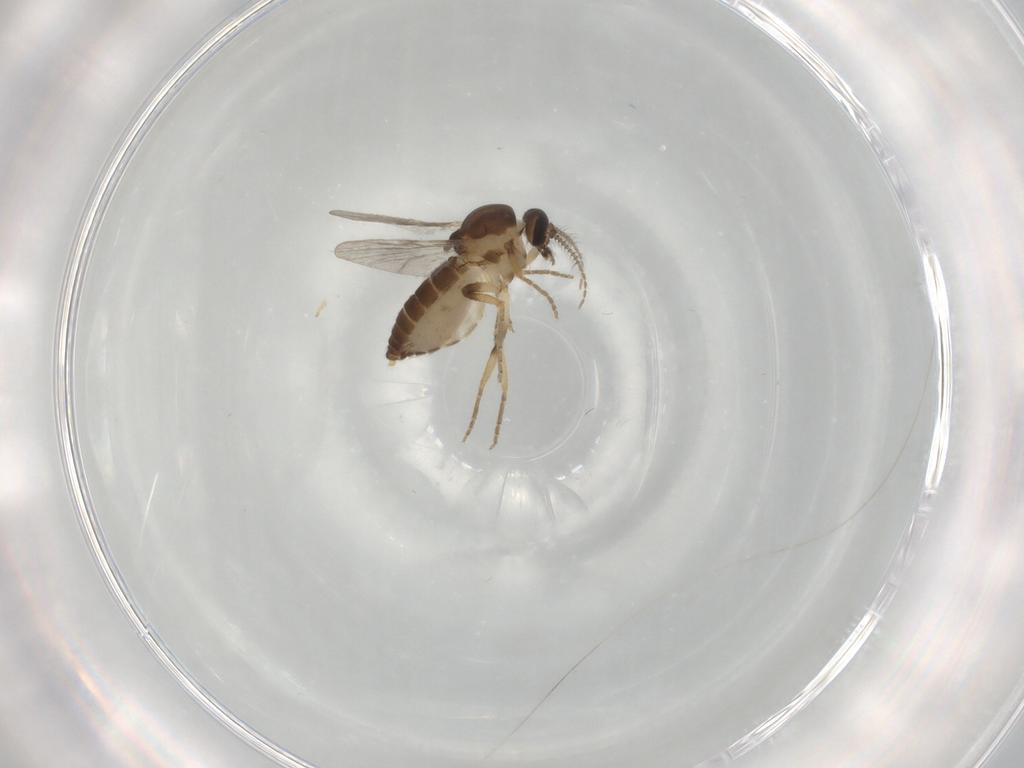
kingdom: Animalia
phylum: Arthropoda
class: Insecta
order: Diptera
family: Ceratopogonidae
